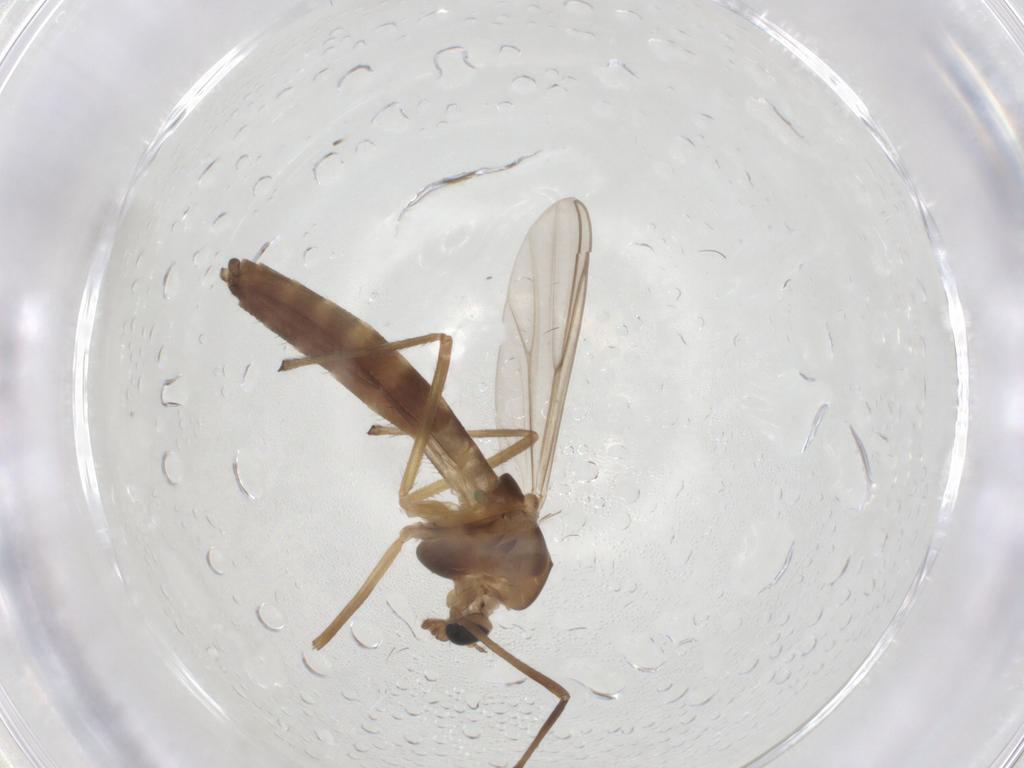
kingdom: Animalia
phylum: Arthropoda
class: Insecta
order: Diptera
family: Chironomidae
